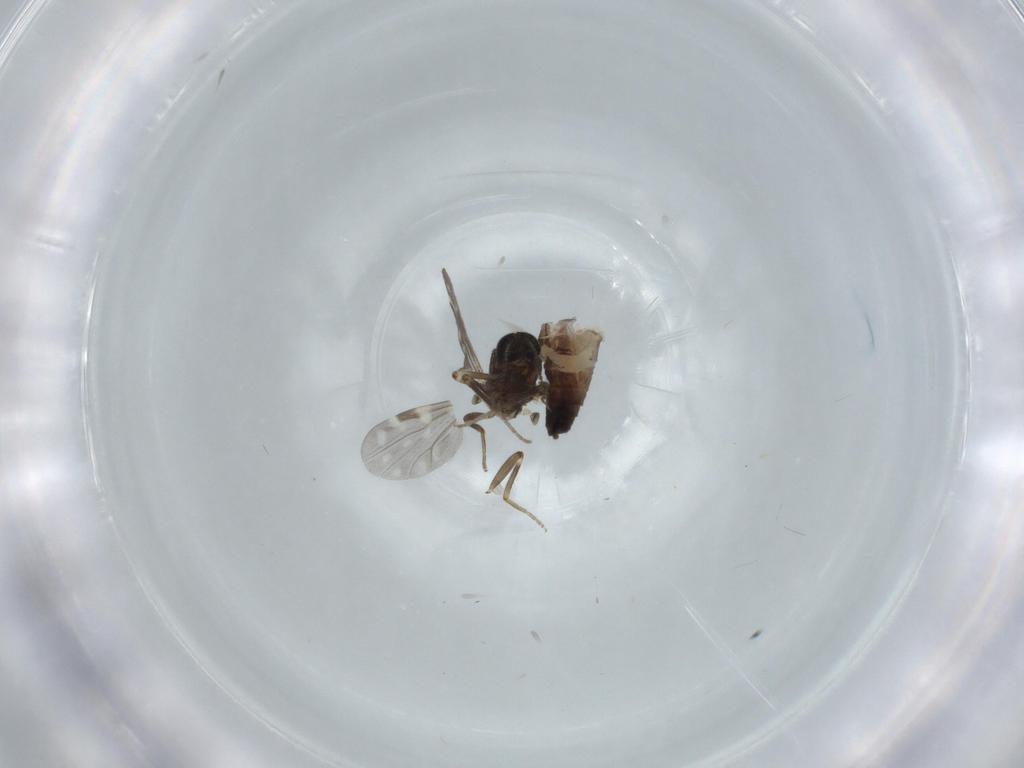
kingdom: Animalia
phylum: Arthropoda
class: Insecta
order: Diptera
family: Ceratopogonidae
